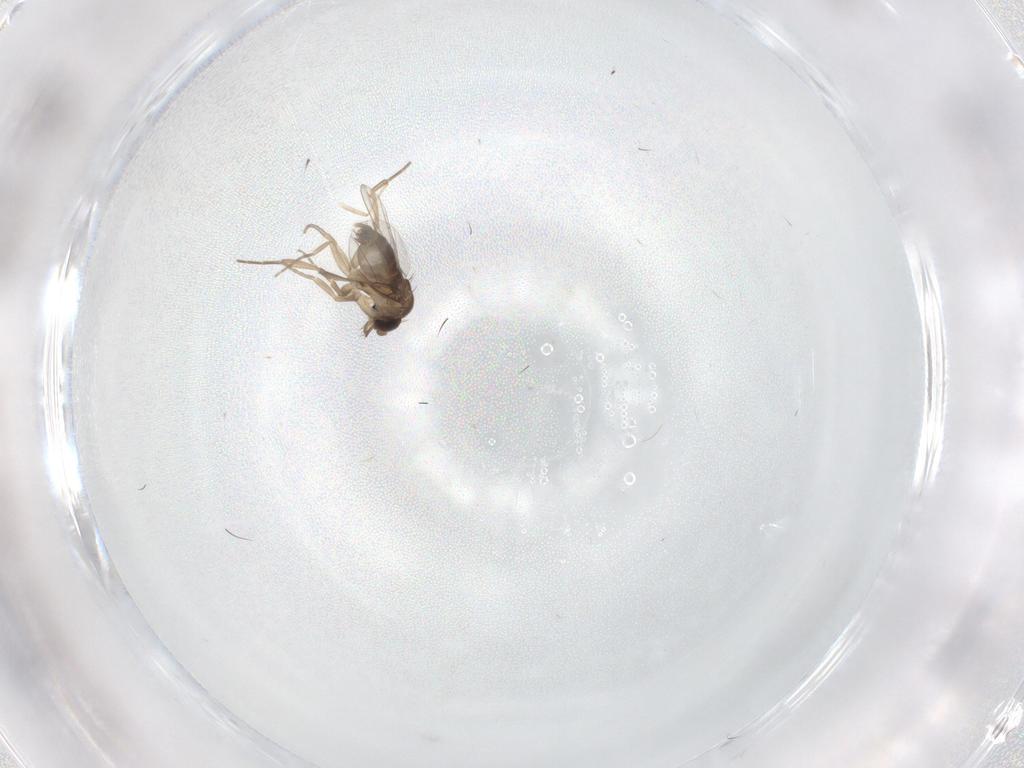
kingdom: Animalia
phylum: Arthropoda
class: Insecta
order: Diptera
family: Phoridae
